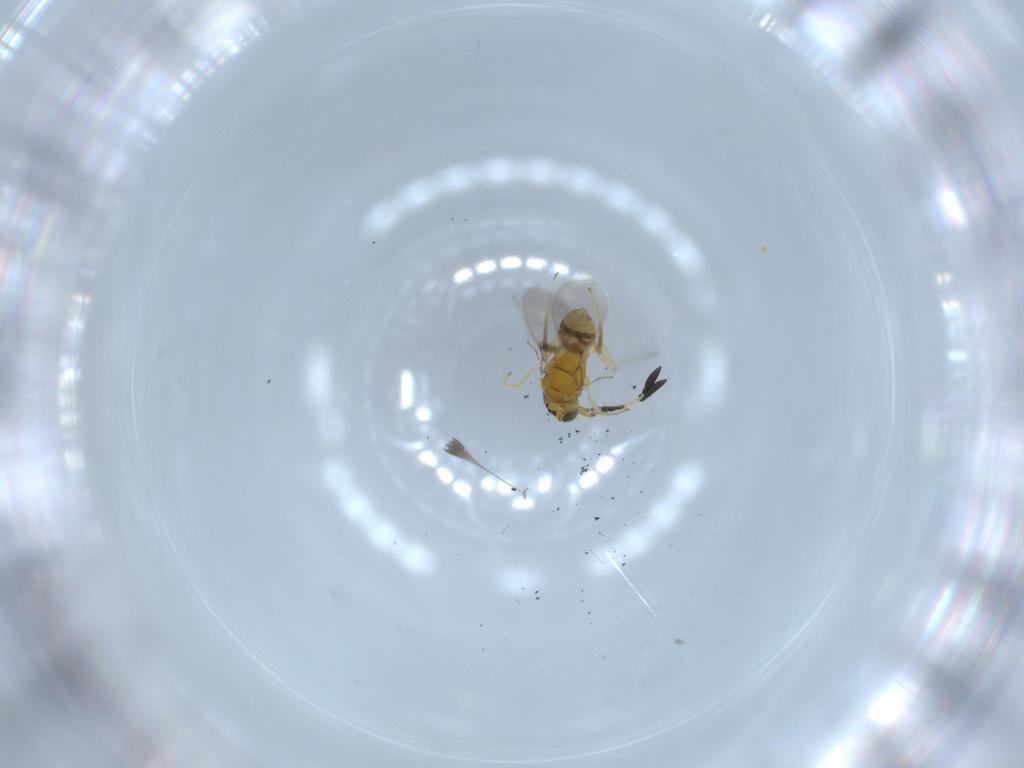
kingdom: Animalia
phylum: Arthropoda
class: Insecta
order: Hymenoptera
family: Mymaridae
